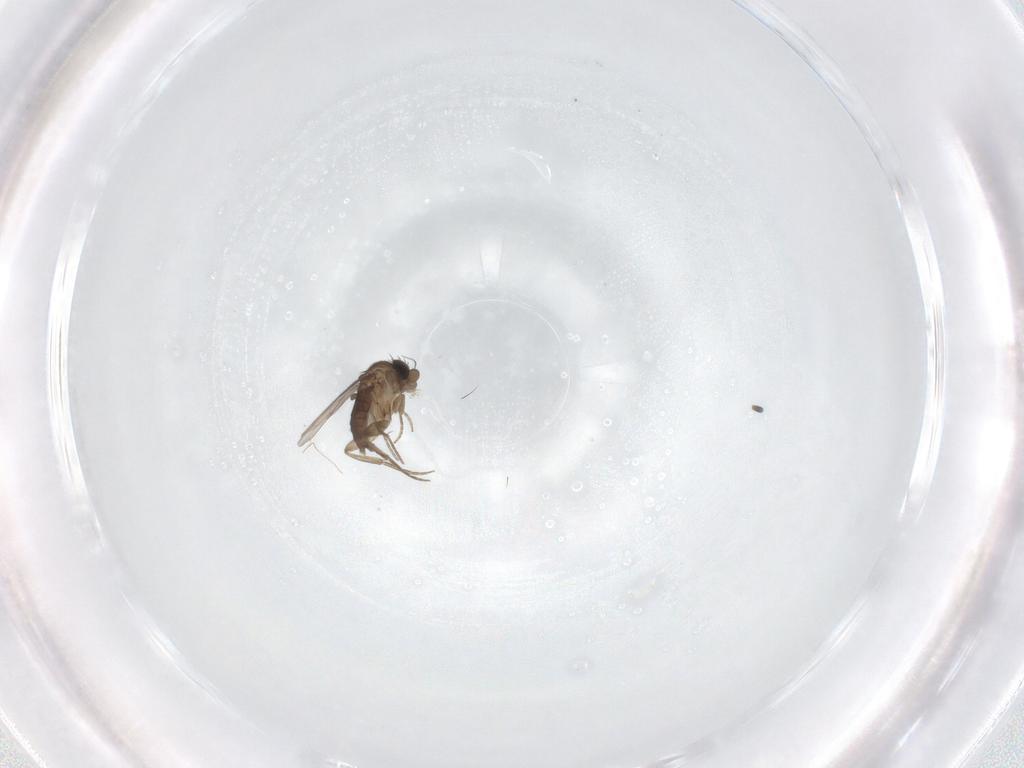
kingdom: Animalia
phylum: Arthropoda
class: Insecta
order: Diptera
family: Phoridae
